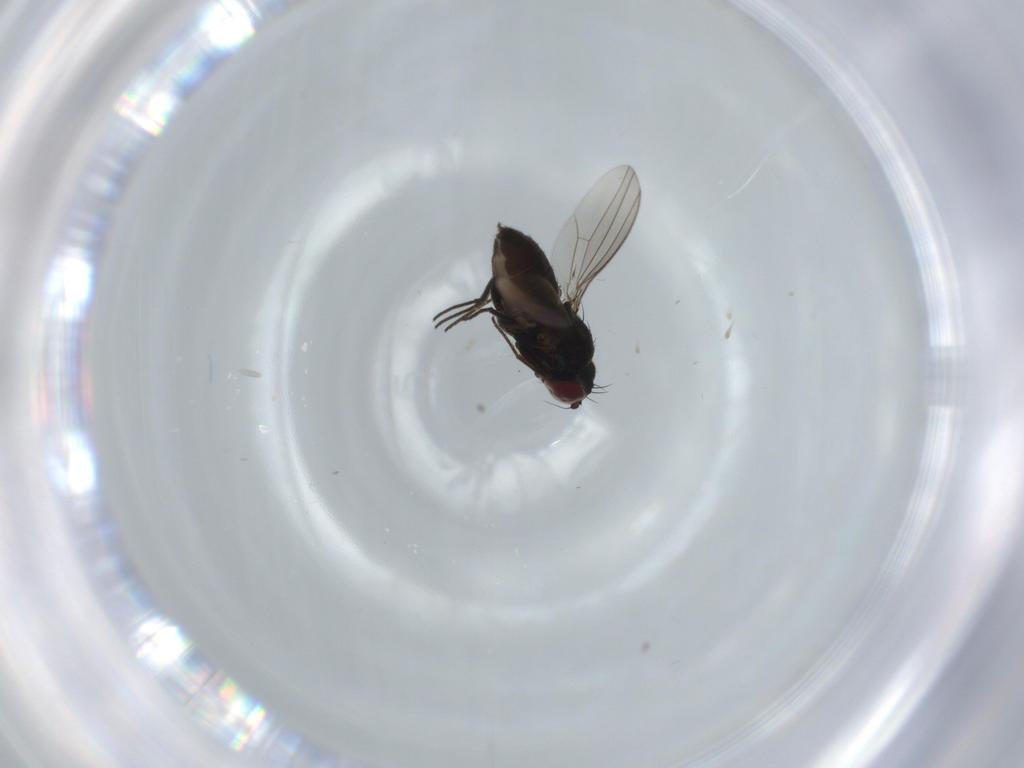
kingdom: Animalia
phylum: Arthropoda
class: Insecta
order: Diptera
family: Dolichopodidae
